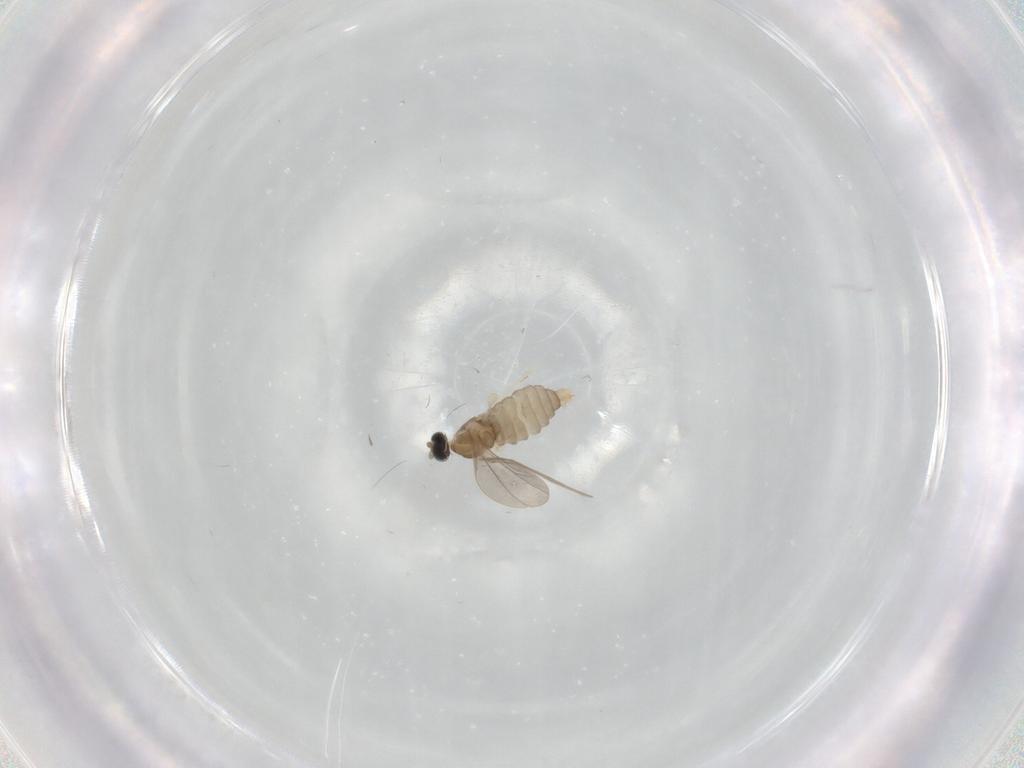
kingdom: Animalia
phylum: Arthropoda
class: Insecta
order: Diptera
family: Cecidomyiidae
